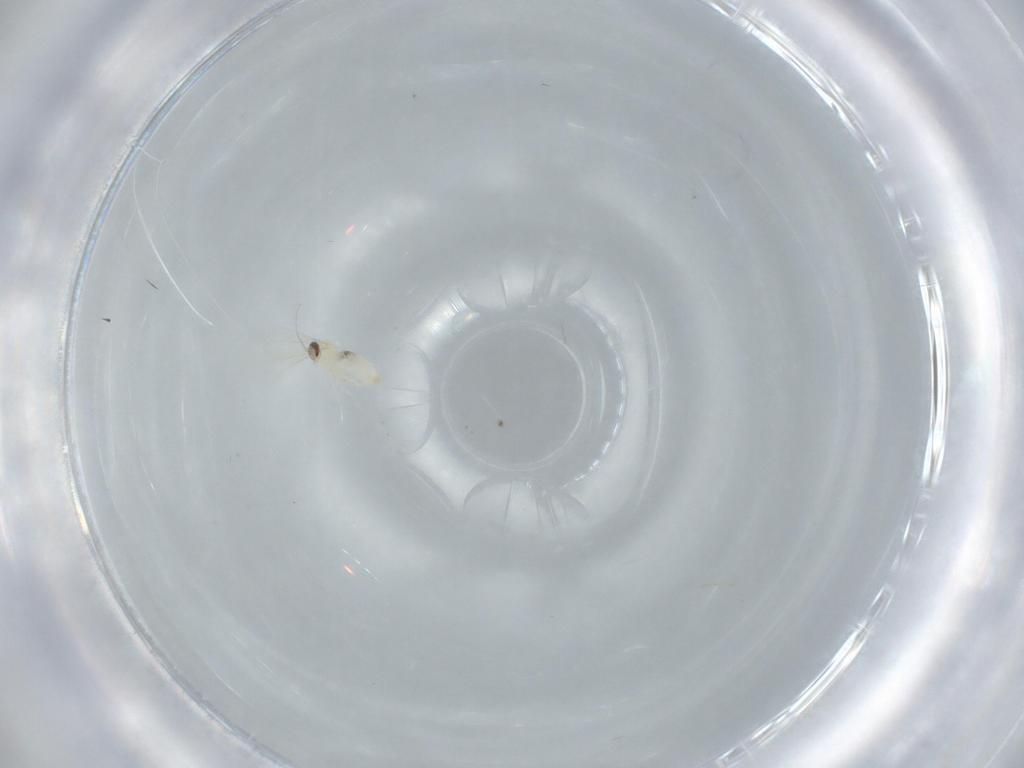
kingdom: Animalia
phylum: Arthropoda
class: Insecta
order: Diptera
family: Cecidomyiidae
